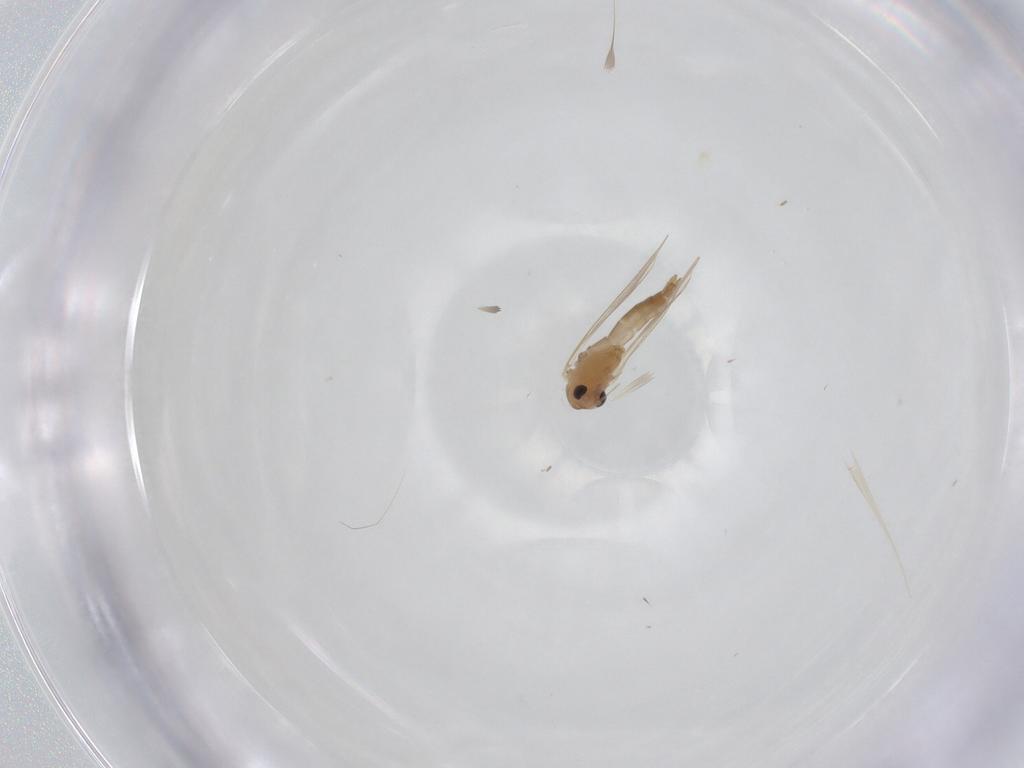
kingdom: Animalia
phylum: Arthropoda
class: Insecta
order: Diptera
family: Psychodidae
